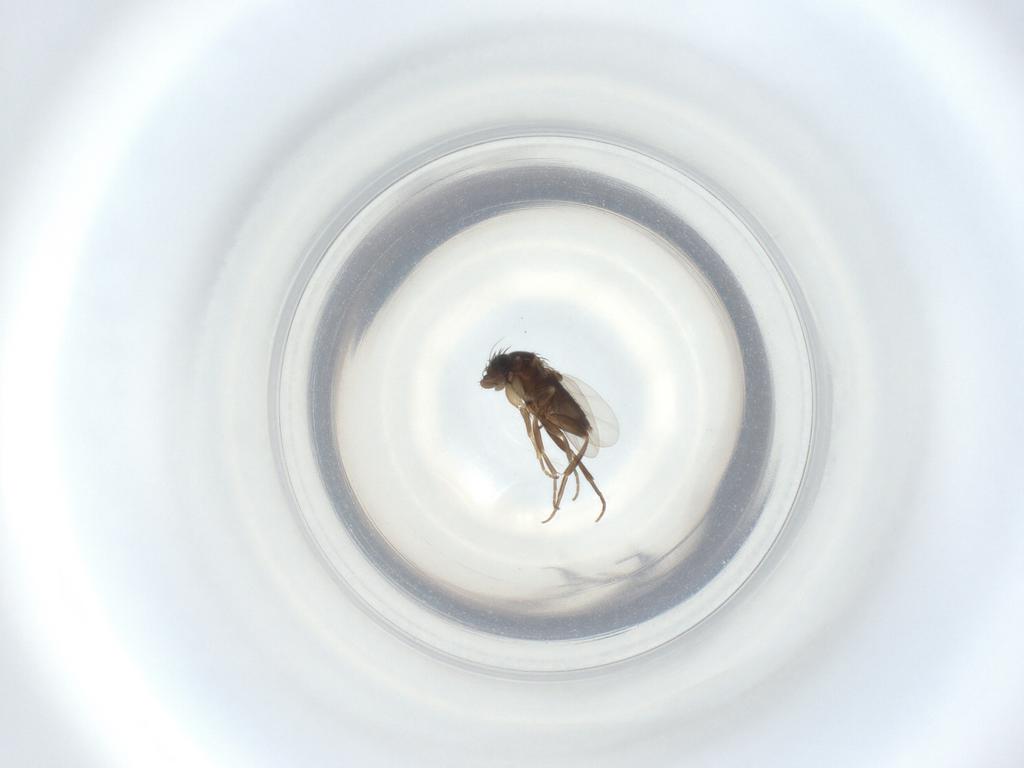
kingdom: Animalia
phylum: Arthropoda
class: Insecta
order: Diptera
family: Phoridae
